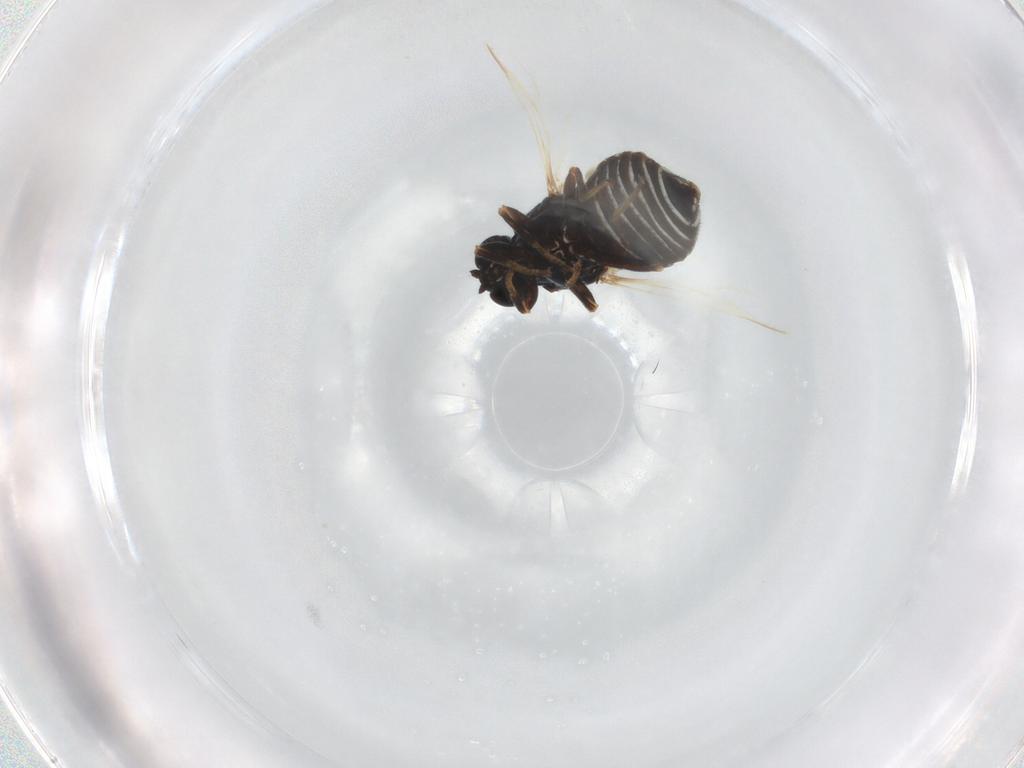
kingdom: Animalia
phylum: Arthropoda
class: Insecta
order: Diptera
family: Scenopinidae
